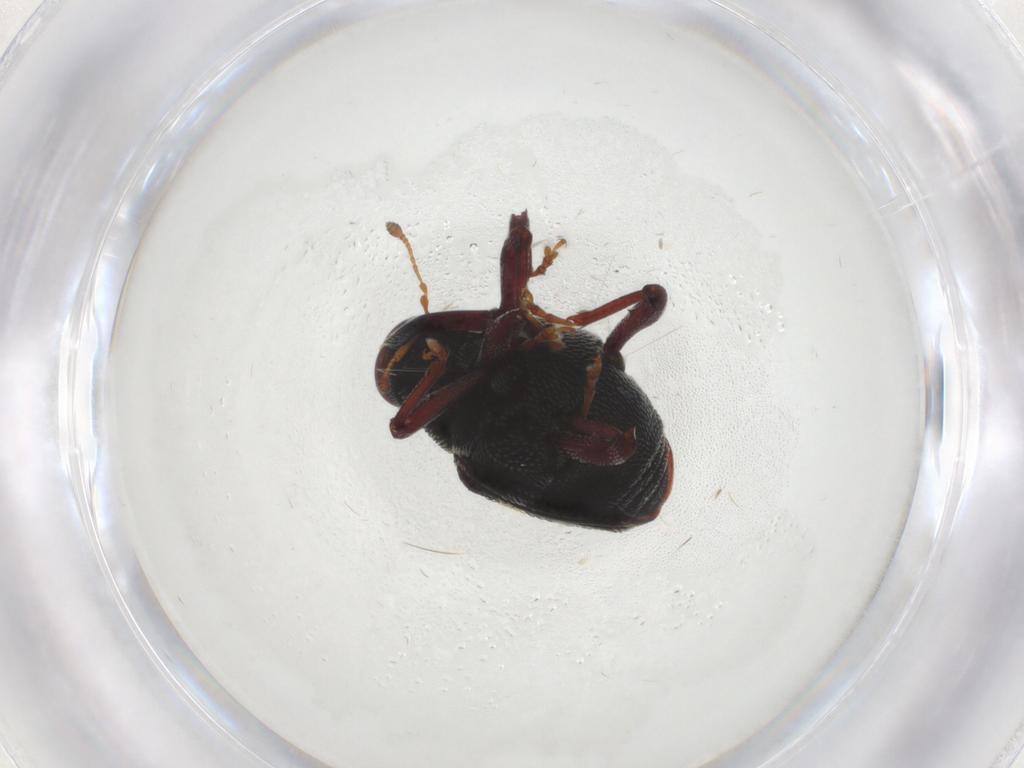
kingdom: Animalia
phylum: Arthropoda
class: Insecta
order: Coleoptera
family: Curculionidae
